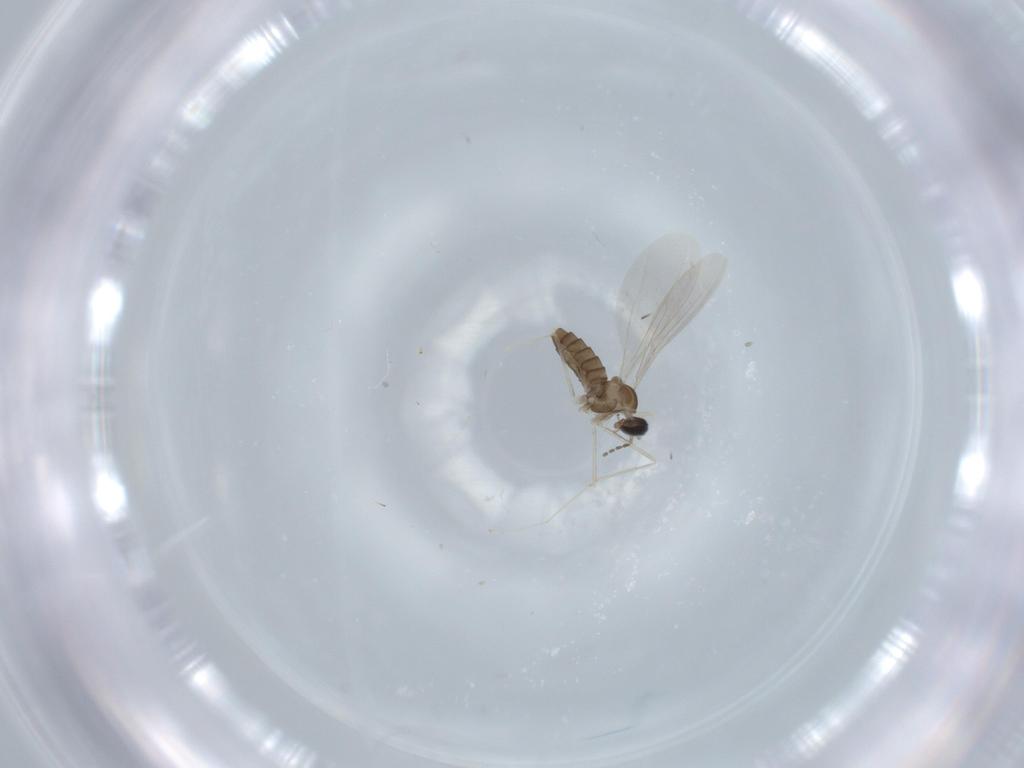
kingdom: Animalia
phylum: Arthropoda
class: Insecta
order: Diptera
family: Cecidomyiidae
